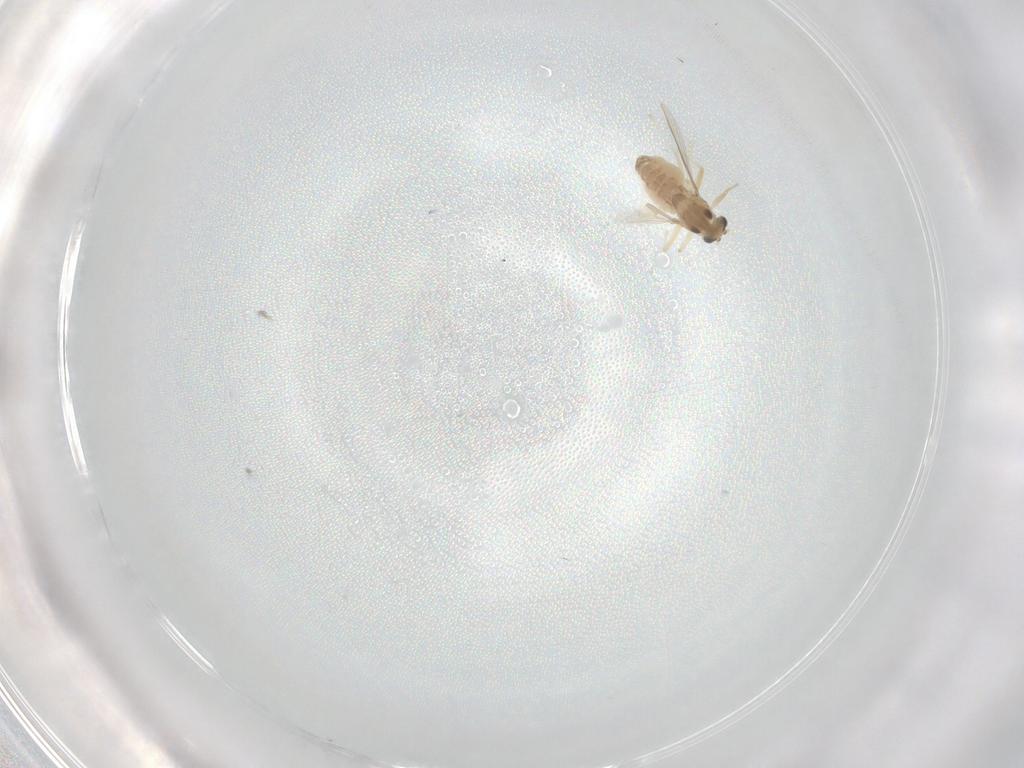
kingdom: Animalia
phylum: Arthropoda
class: Insecta
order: Diptera
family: Chironomidae
